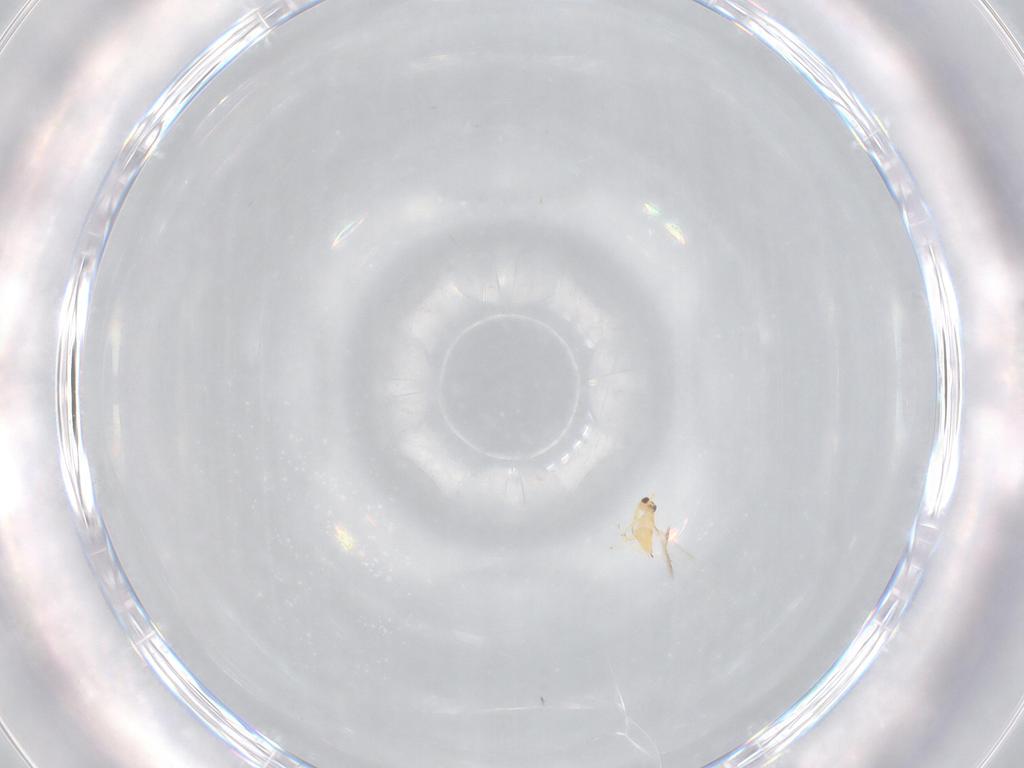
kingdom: Animalia
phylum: Arthropoda
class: Insecta
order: Hymenoptera
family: Mymaridae
